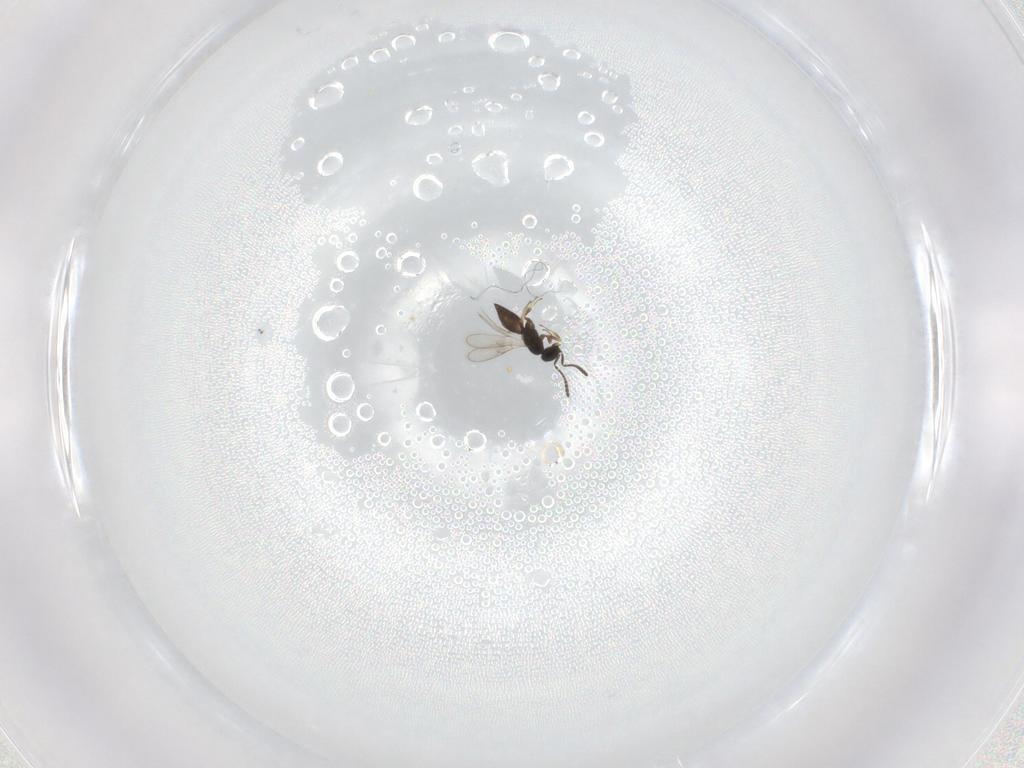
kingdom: Animalia
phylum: Arthropoda
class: Insecta
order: Hymenoptera
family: Scelionidae
